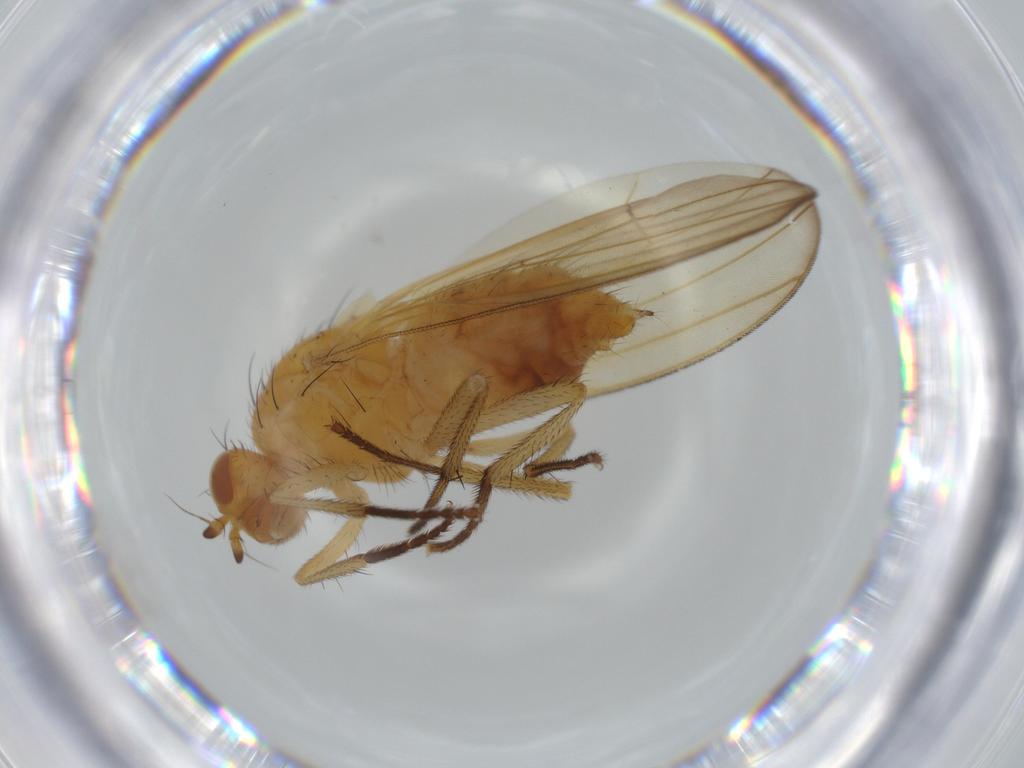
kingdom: Animalia
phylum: Arthropoda
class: Insecta
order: Diptera
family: Lauxaniidae
